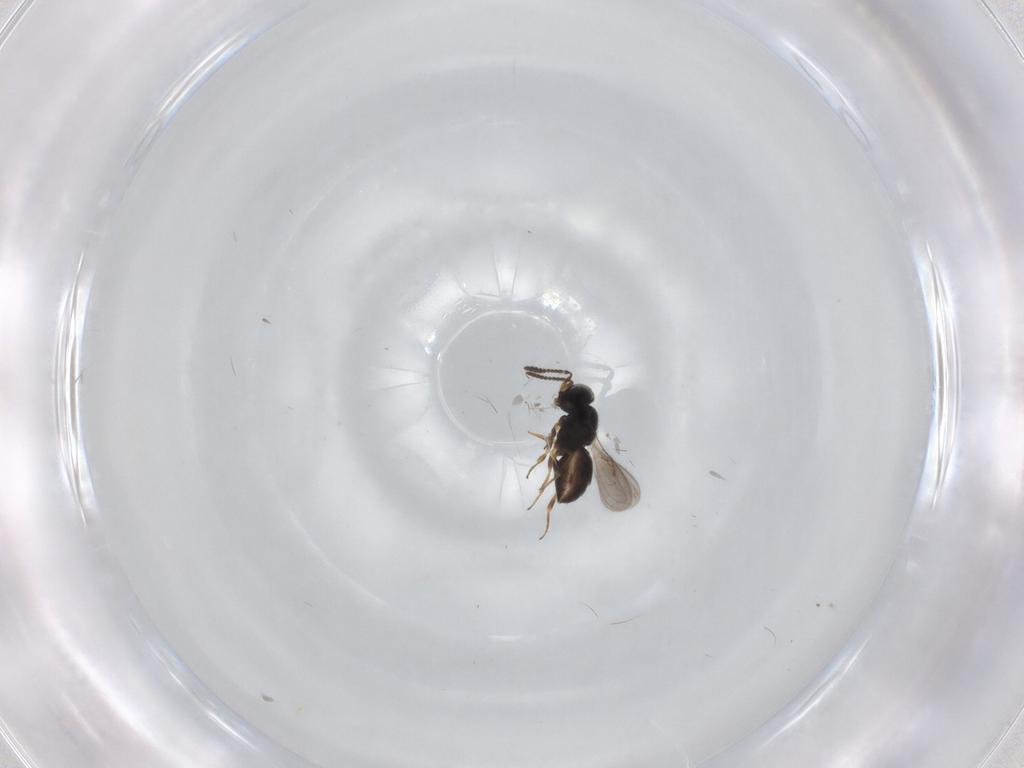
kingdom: Animalia
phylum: Arthropoda
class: Insecta
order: Hymenoptera
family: Scelionidae
